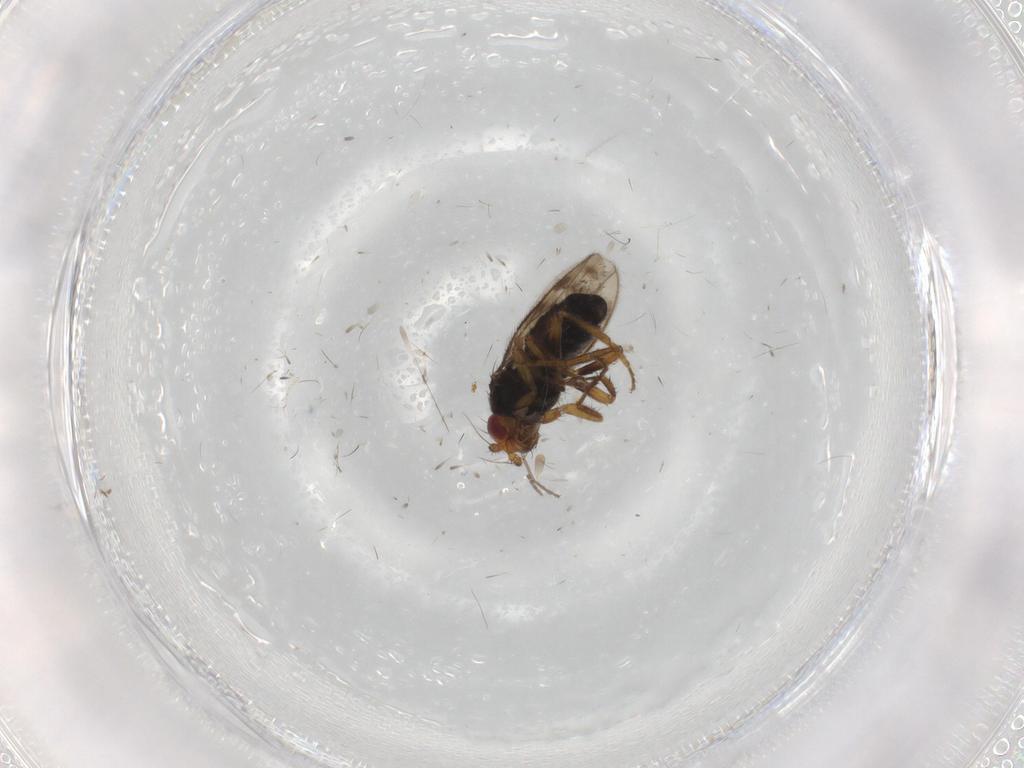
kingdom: Animalia
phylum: Arthropoda
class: Insecta
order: Diptera
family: Sphaeroceridae
